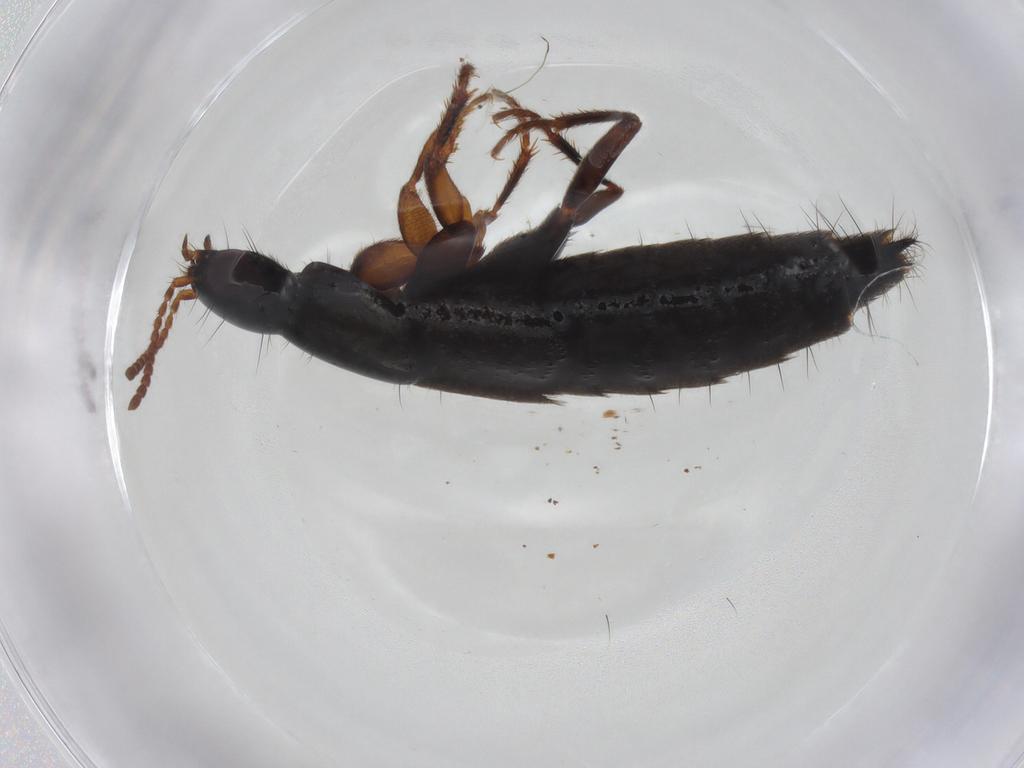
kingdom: Animalia
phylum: Arthropoda
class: Insecta
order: Coleoptera
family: Staphylinidae
